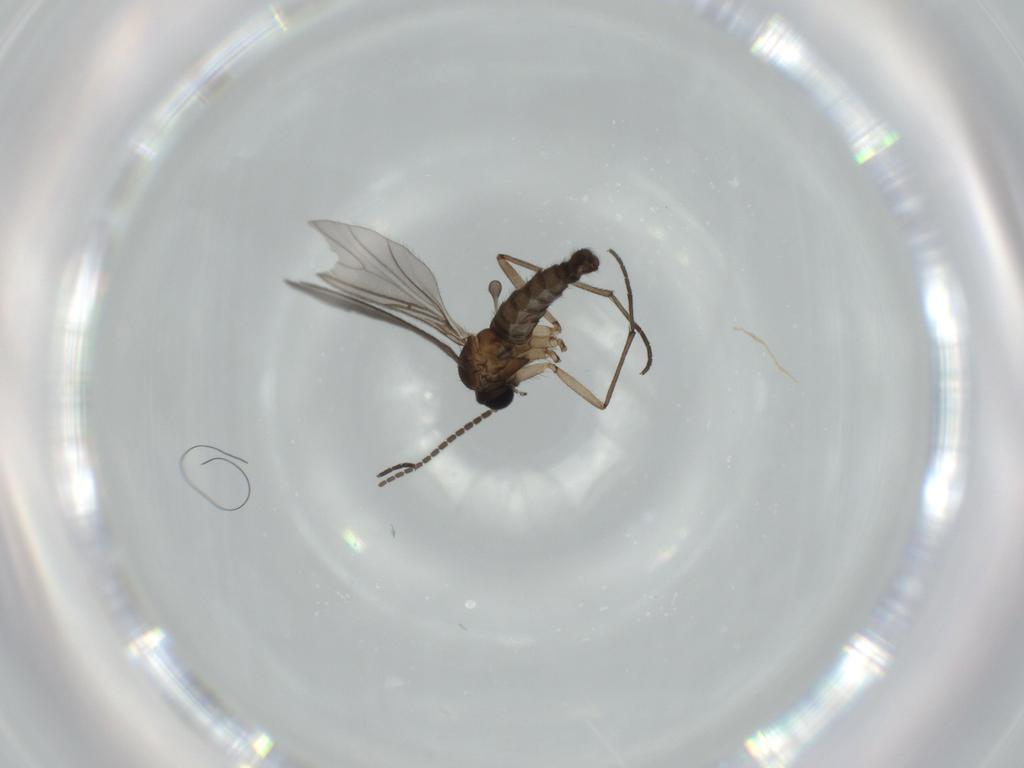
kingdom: Animalia
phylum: Arthropoda
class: Insecta
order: Diptera
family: Sciaridae
